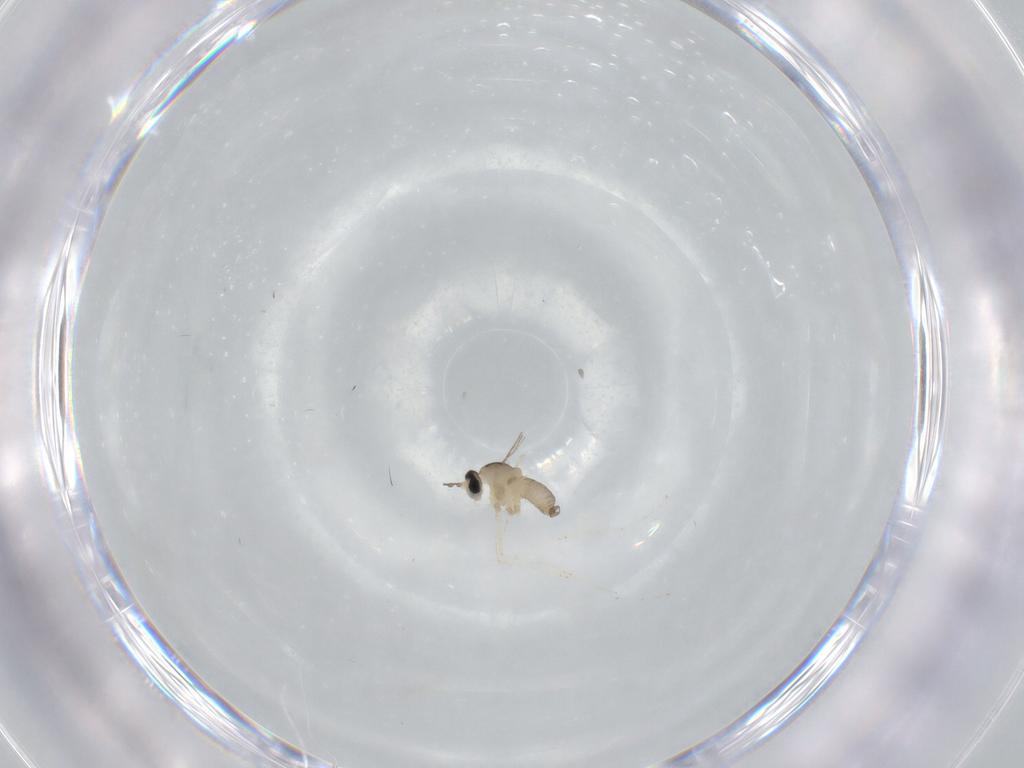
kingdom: Animalia
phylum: Arthropoda
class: Insecta
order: Diptera
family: Cecidomyiidae
